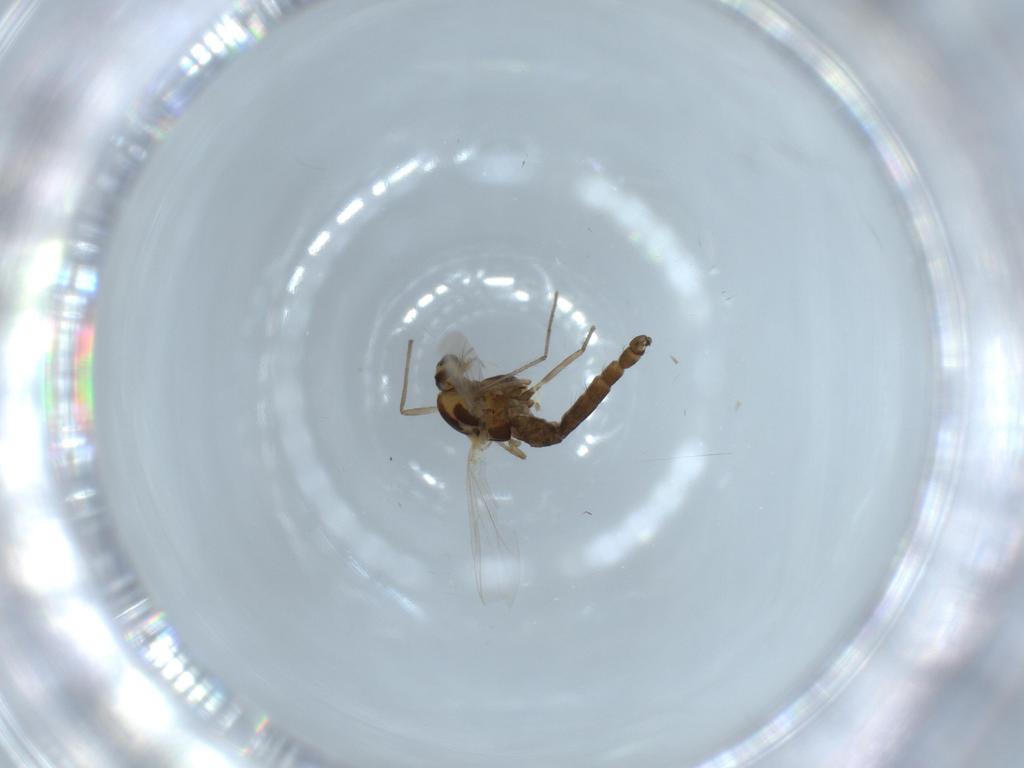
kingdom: Animalia
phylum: Arthropoda
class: Insecta
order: Diptera
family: Chironomidae
